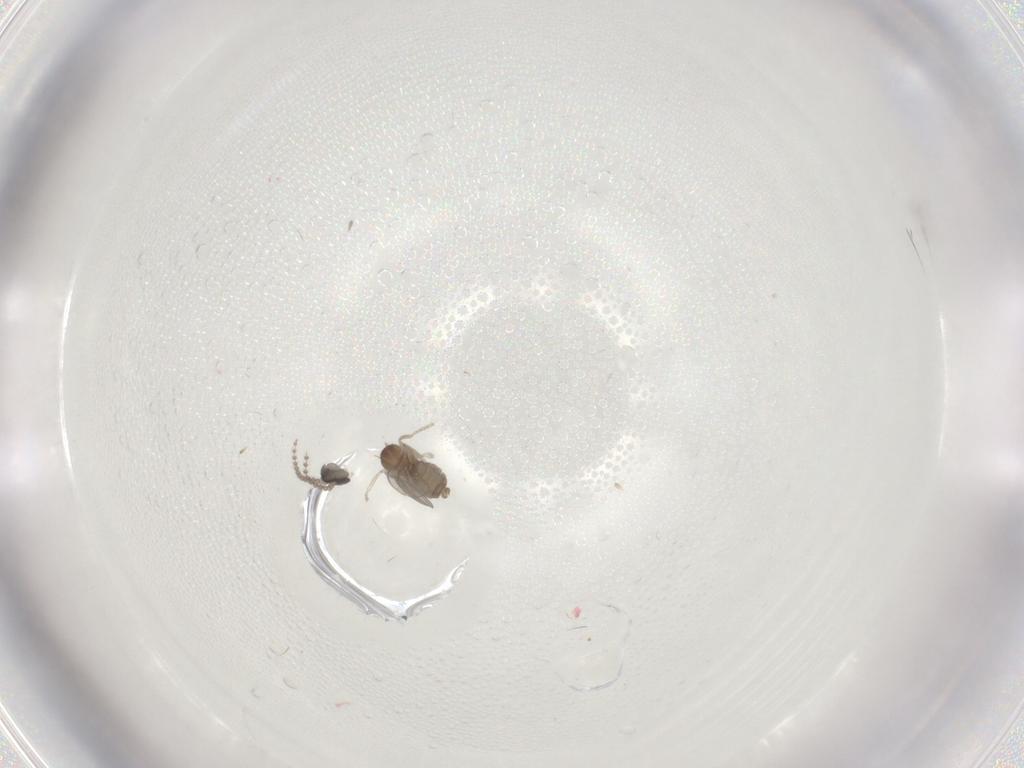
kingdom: Animalia
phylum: Arthropoda
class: Insecta
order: Diptera
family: Cecidomyiidae
